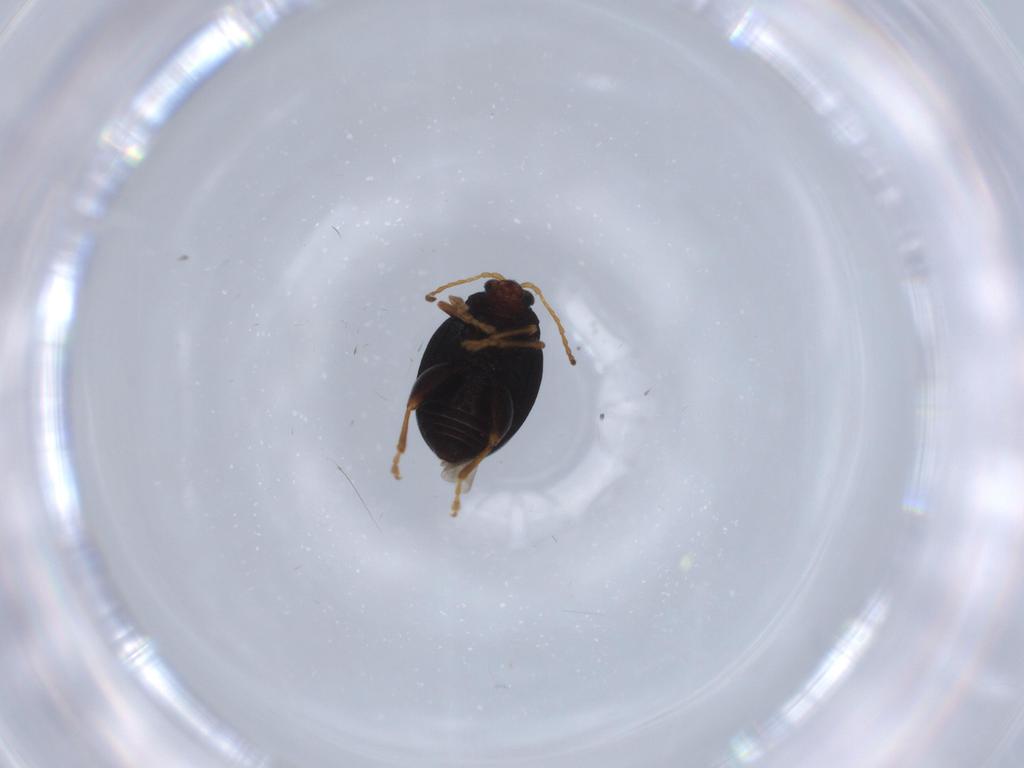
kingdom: Animalia
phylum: Arthropoda
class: Insecta
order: Coleoptera
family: Chrysomelidae
